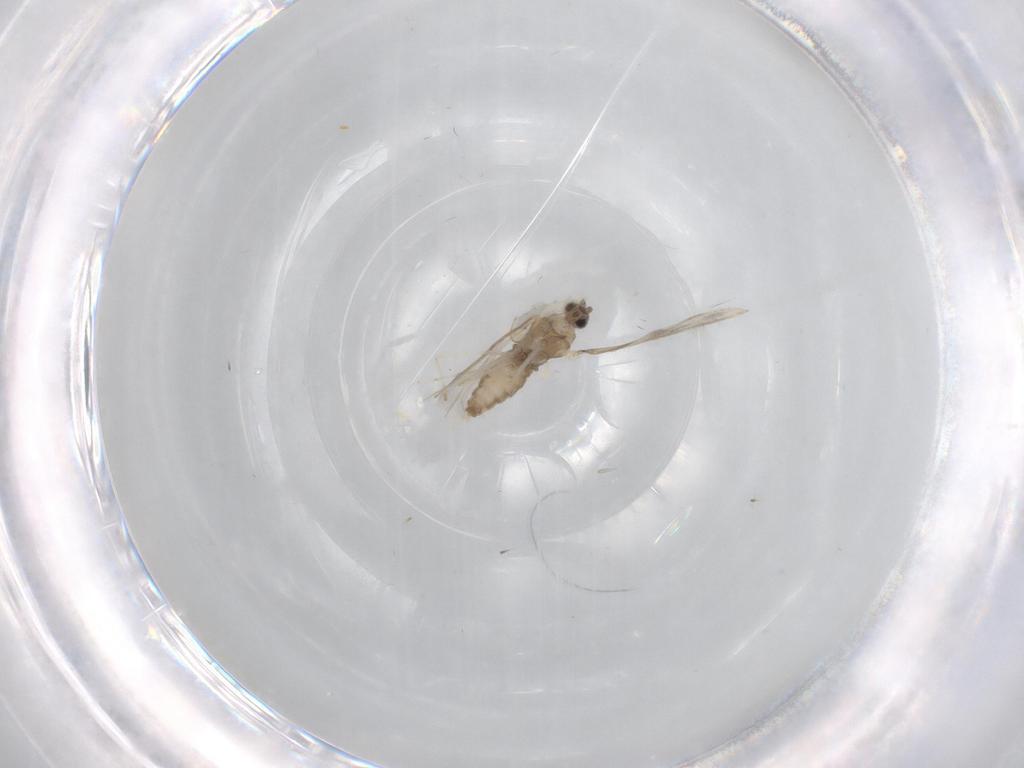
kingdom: Animalia
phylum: Arthropoda
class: Insecta
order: Diptera
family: Cecidomyiidae
